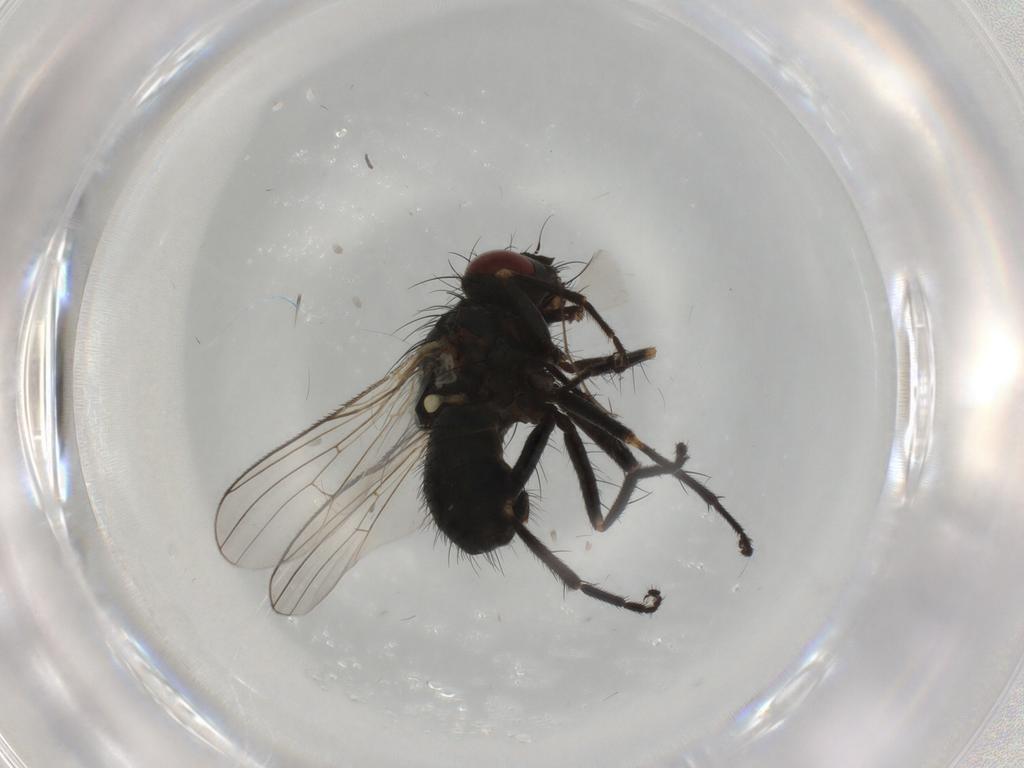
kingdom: Animalia
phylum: Arthropoda
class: Insecta
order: Diptera
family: Muscidae
